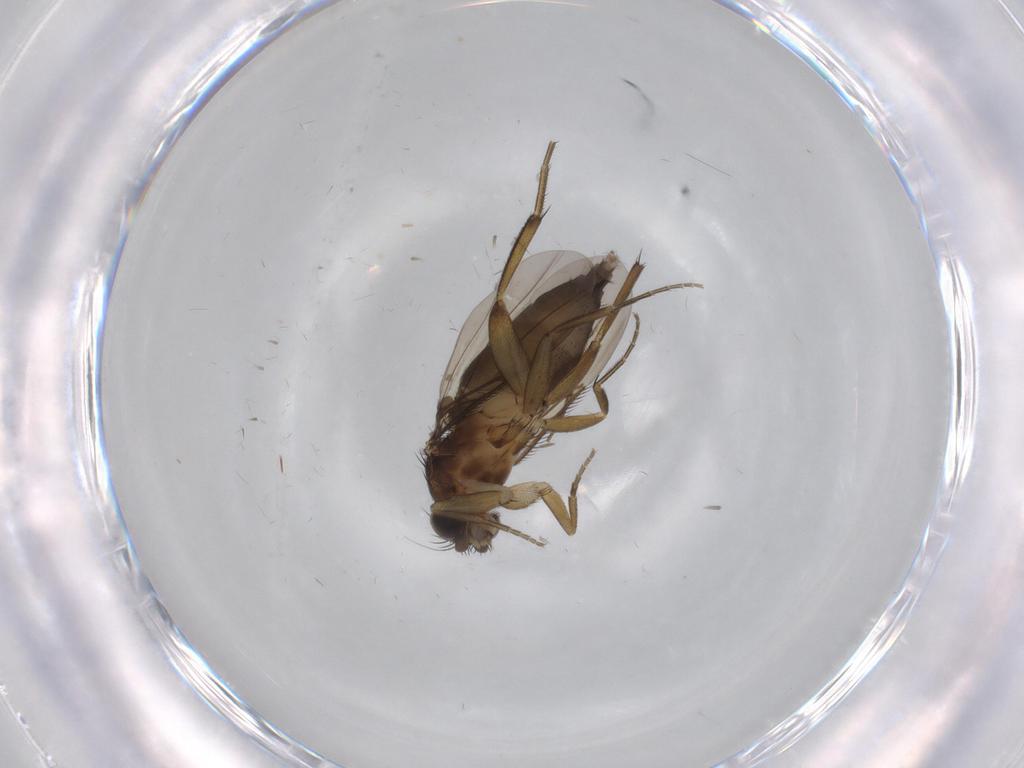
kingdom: Animalia
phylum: Arthropoda
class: Insecta
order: Diptera
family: Phoridae
